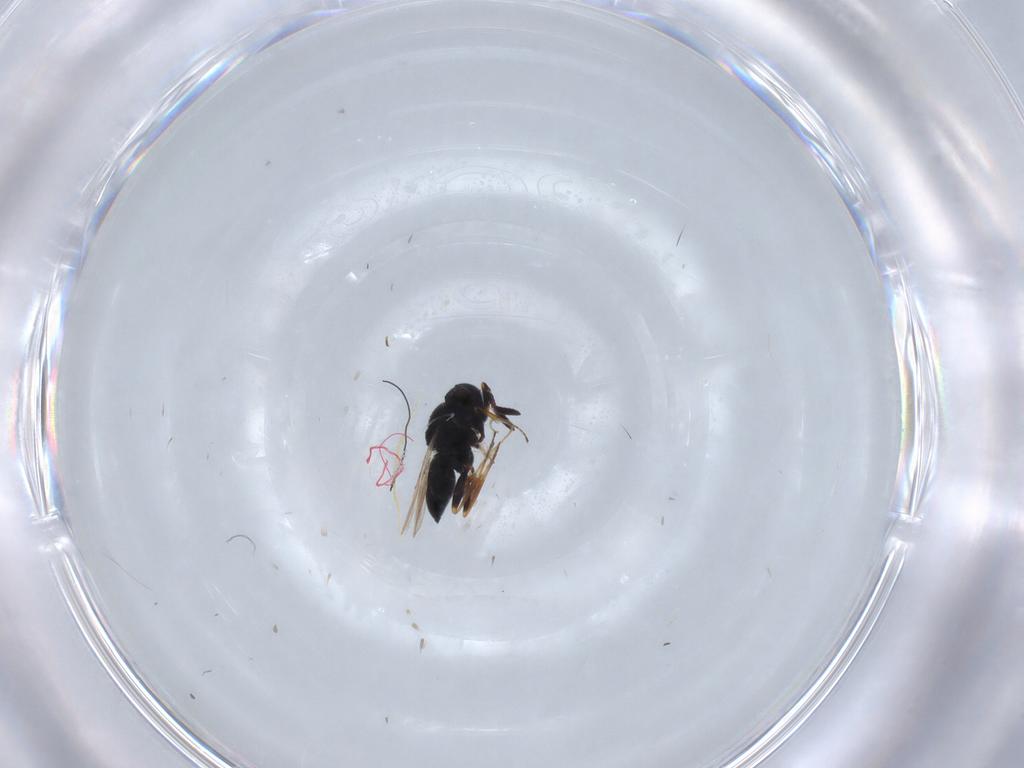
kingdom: Animalia
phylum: Arthropoda
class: Insecta
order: Hymenoptera
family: Scelionidae
